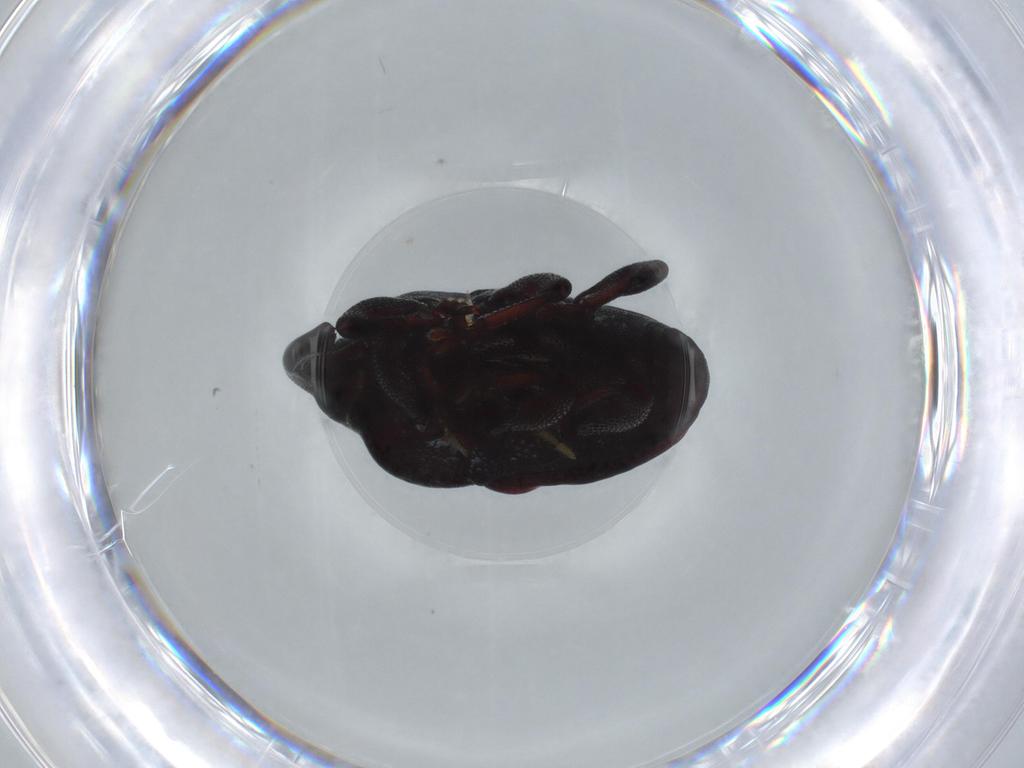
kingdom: Animalia
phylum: Arthropoda
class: Insecta
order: Coleoptera
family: Curculionidae
